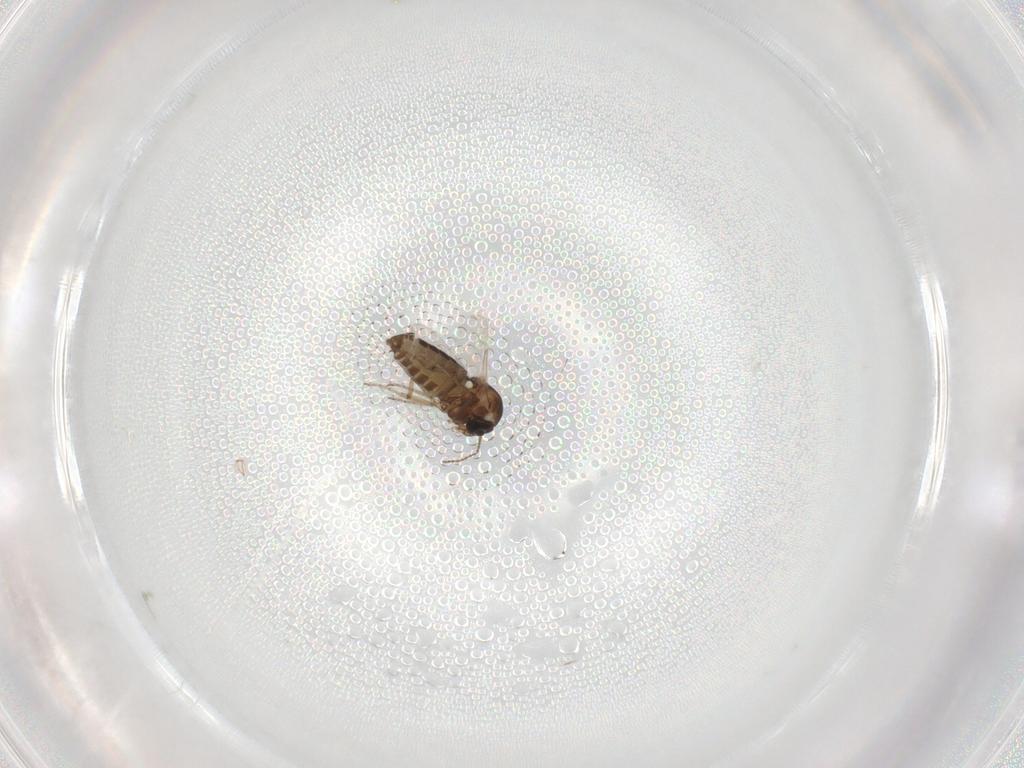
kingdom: Animalia
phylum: Arthropoda
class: Insecta
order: Diptera
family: Ceratopogonidae
